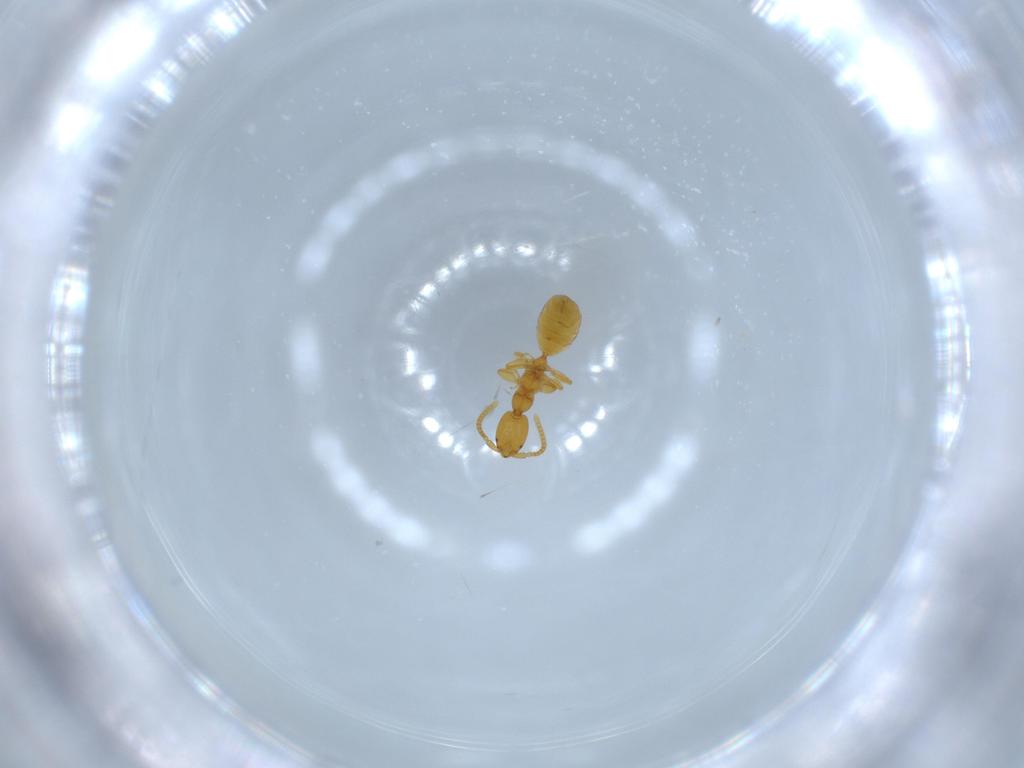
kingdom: Animalia
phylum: Arthropoda
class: Insecta
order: Hymenoptera
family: Bethylidae
